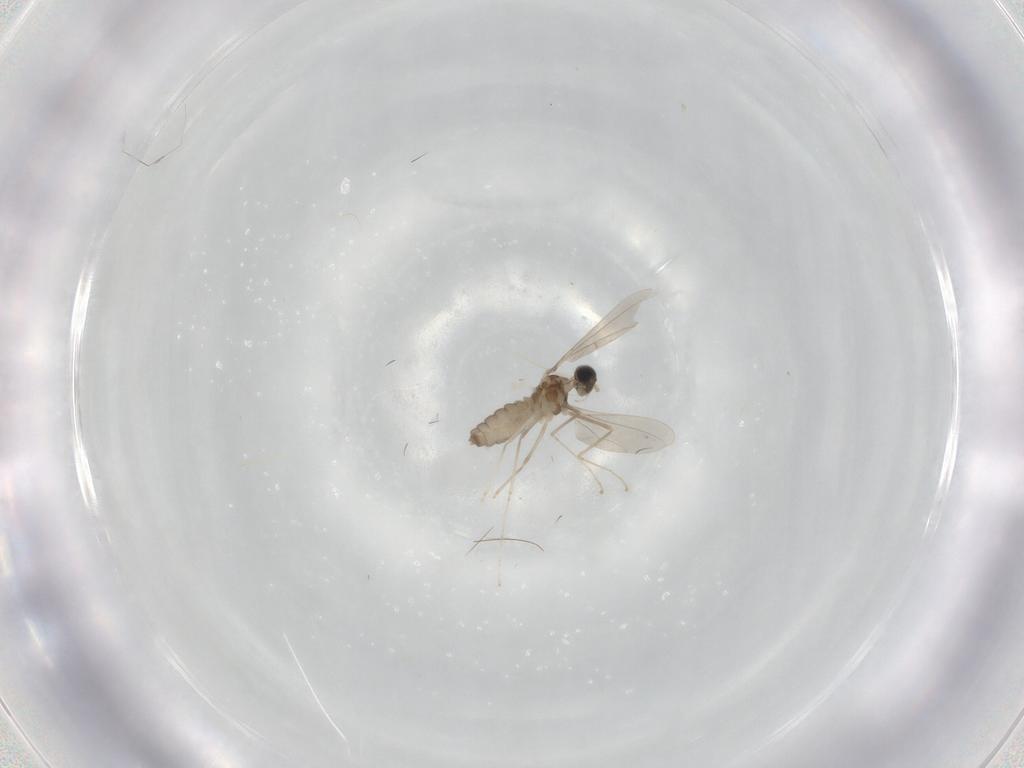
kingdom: Animalia
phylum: Arthropoda
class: Insecta
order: Diptera
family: Cecidomyiidae
